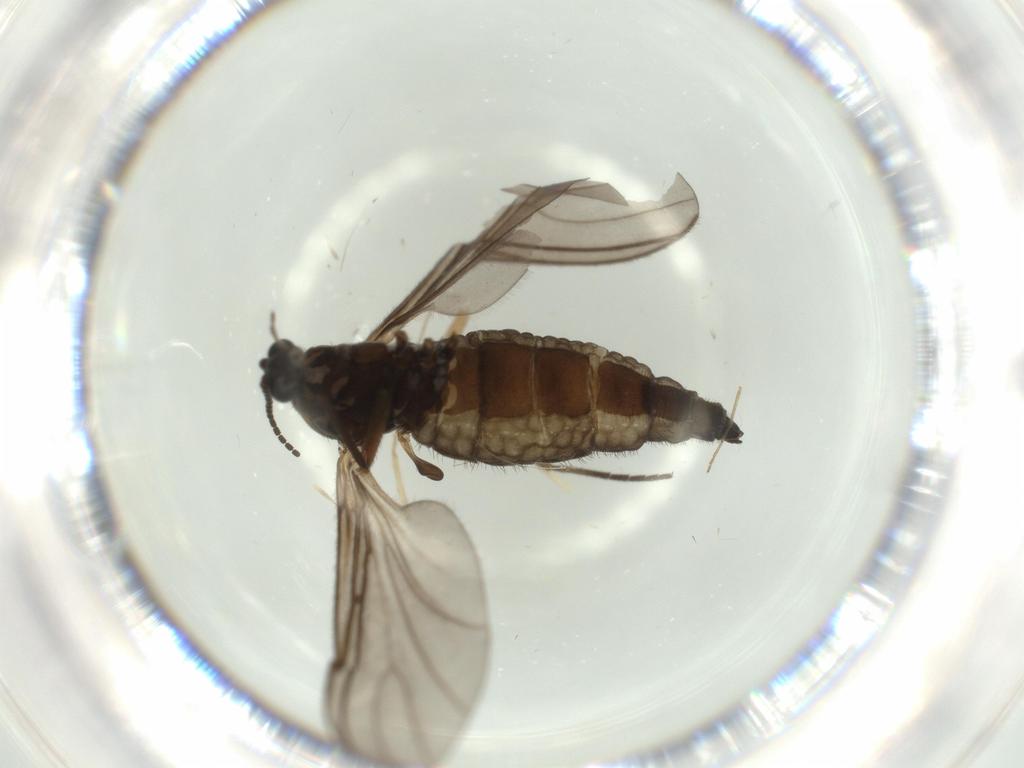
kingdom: Animalia
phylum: Arthropoda
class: Insecta
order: Diptera
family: Sciaridae
